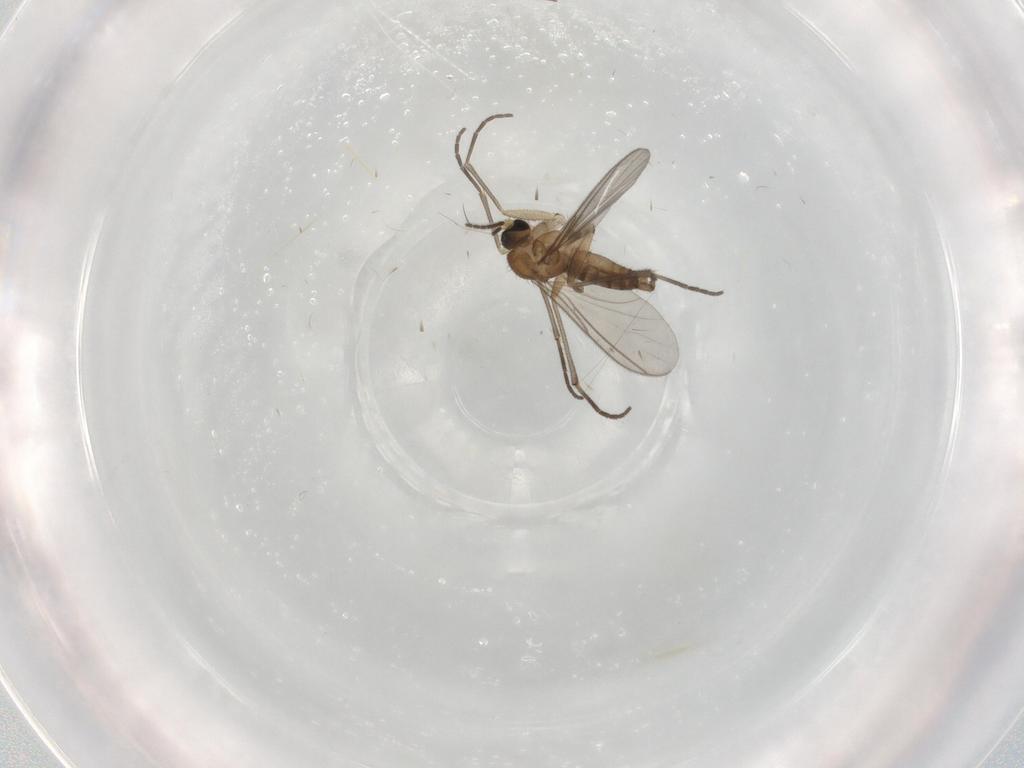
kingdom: Animalia
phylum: Arthropoda
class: Insecta
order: Diptera
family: Sciaridae
